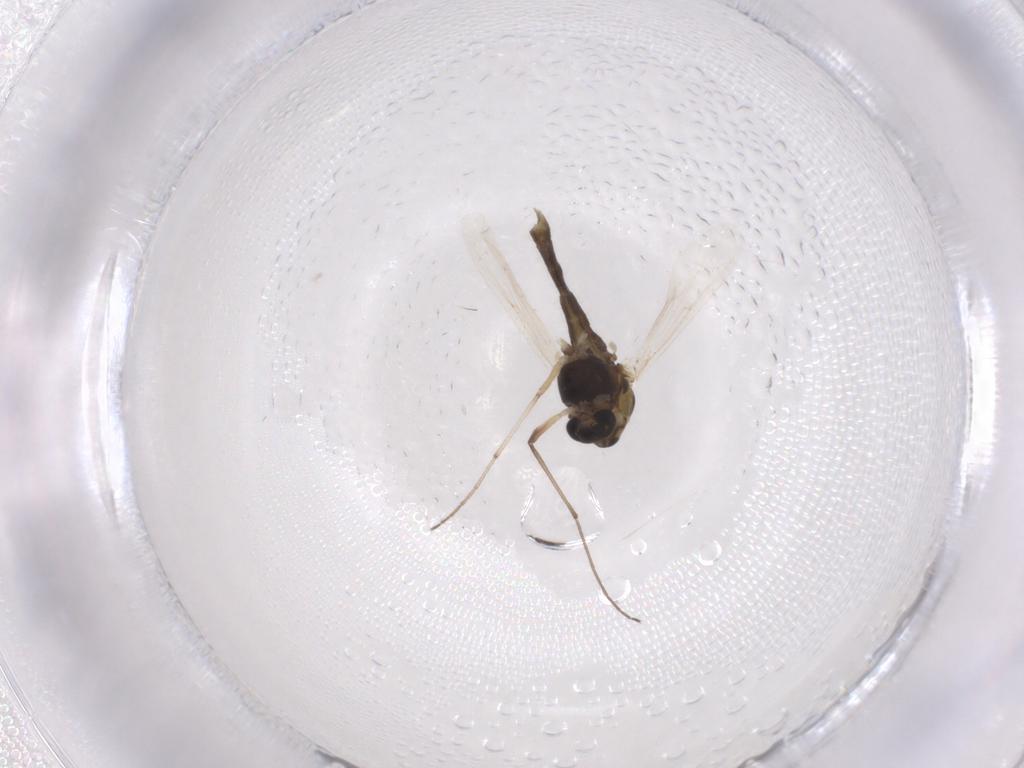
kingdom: Animalia
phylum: Arthropoda
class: Insecta
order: Diptera
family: Chironomidae
